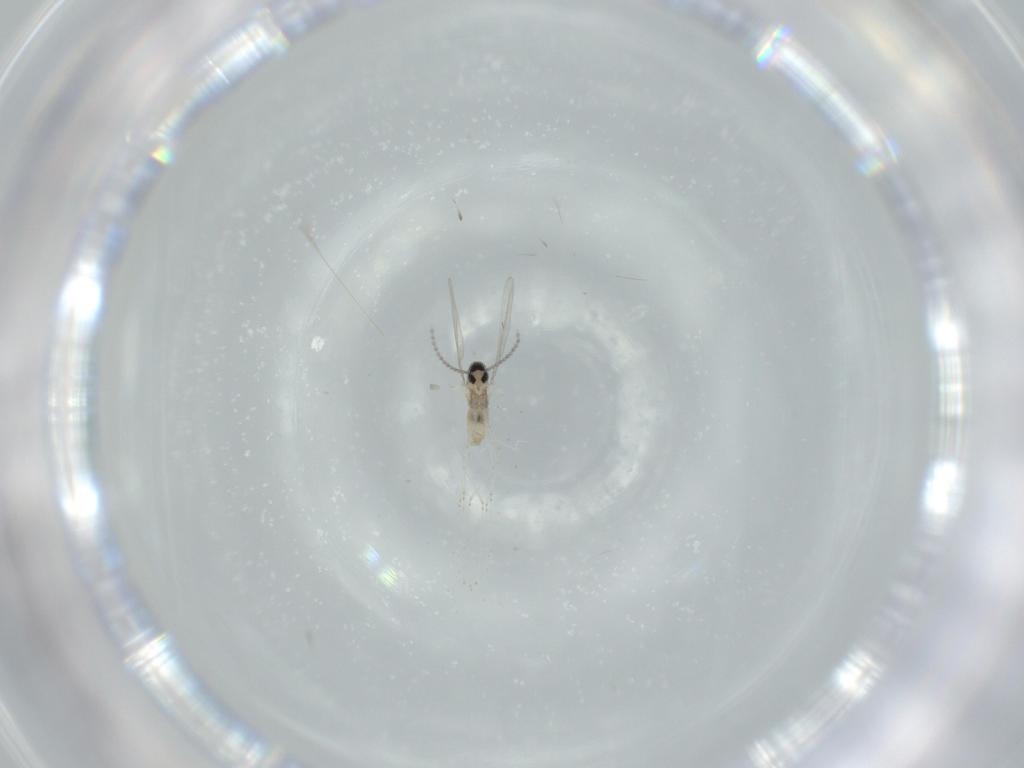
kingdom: Animalia
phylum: Arthropoda
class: Insecta
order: Diptera
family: Cecidomyiidae
